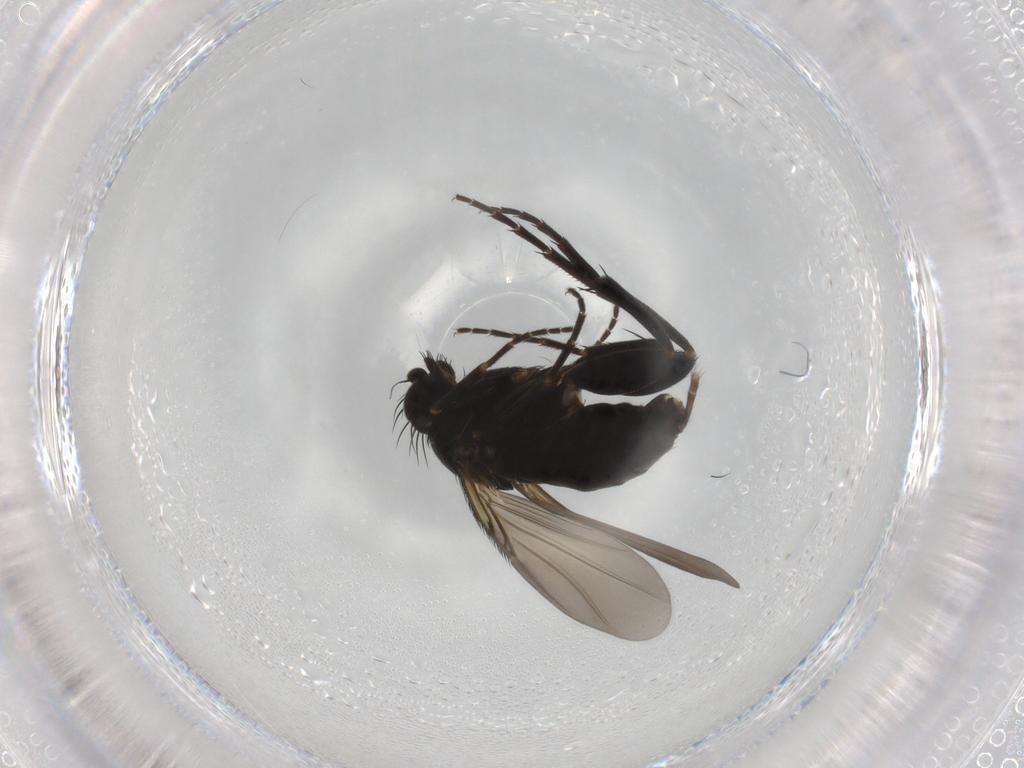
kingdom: Animalia
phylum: Arthropoda
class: Insecta
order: Diptera
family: Phoridae
